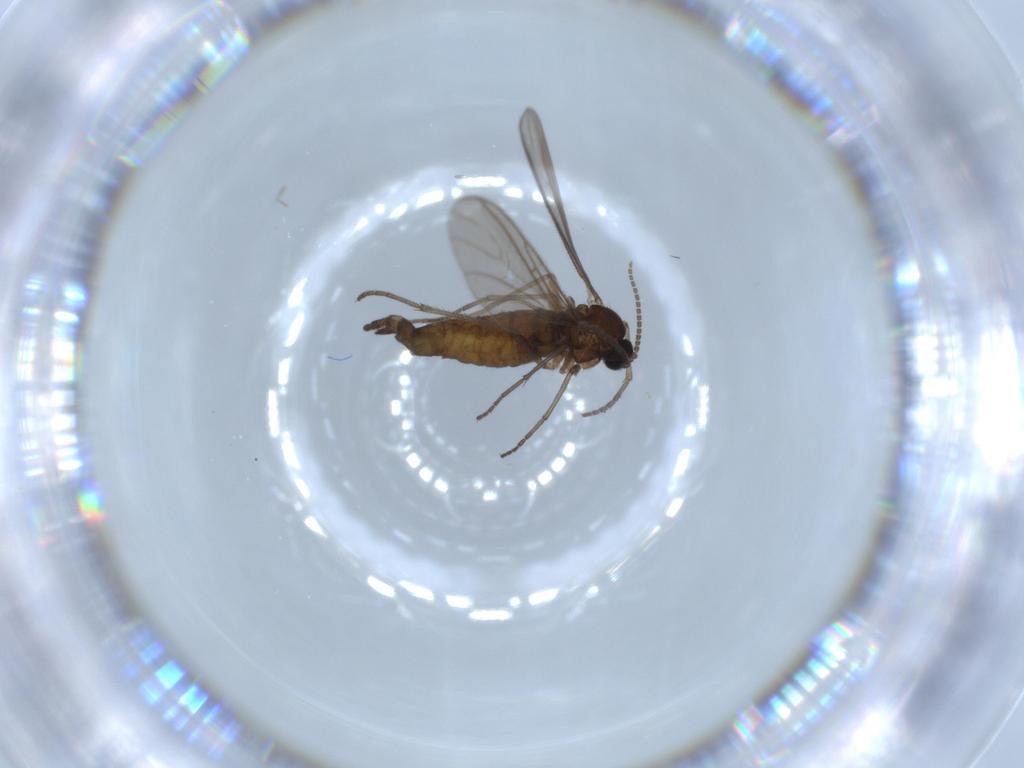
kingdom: Animalia
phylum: Arthropoda
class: Insecta
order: Diptera
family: Sciaridae
